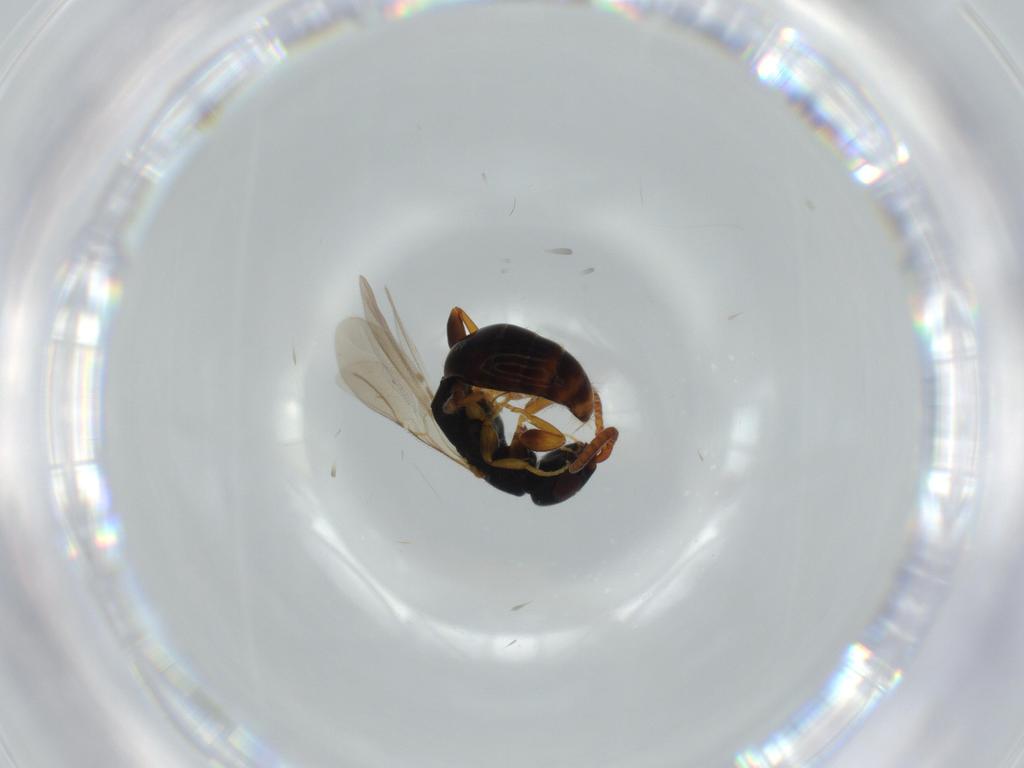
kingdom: Animalia
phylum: Arthropoda
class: Insecta
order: Hymenoptera
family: Bethylidae
